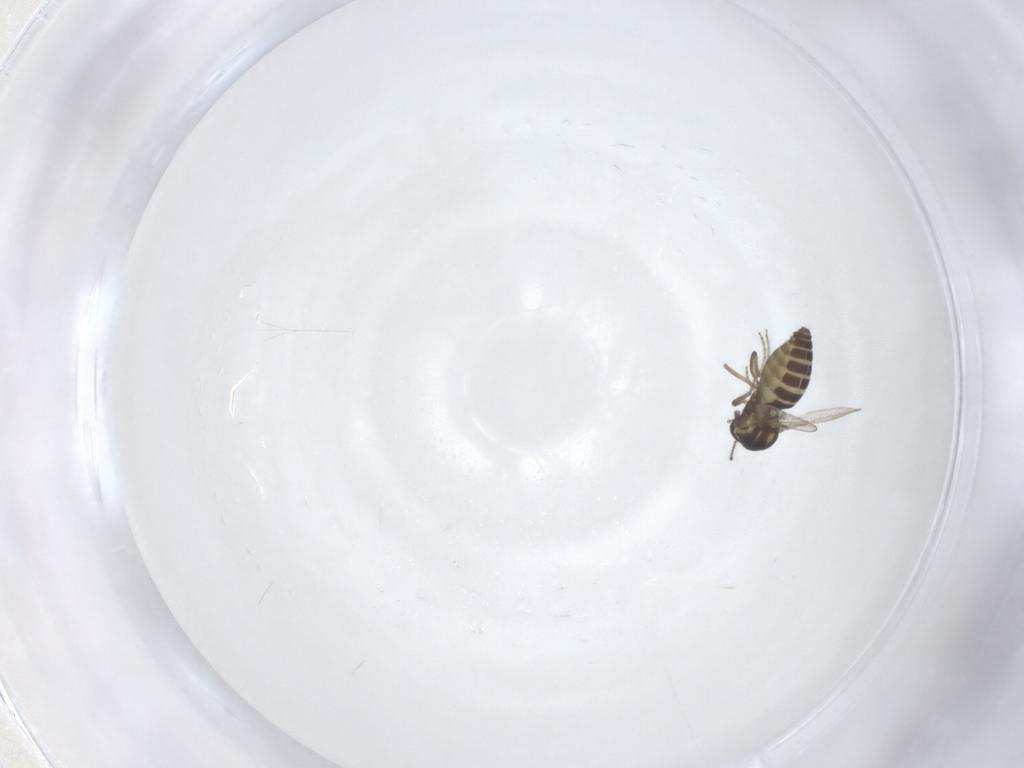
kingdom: Animalia
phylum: Arthropoda
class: Insecta
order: Diptera
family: Ceratopogonidae
